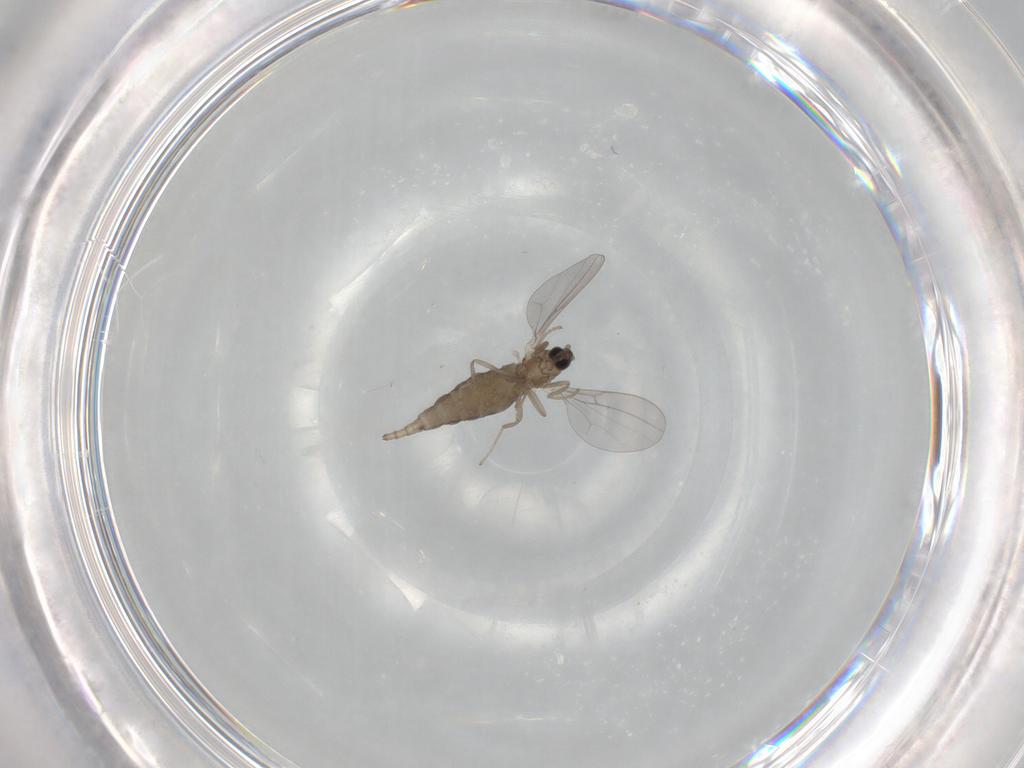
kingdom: Animalia
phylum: Arthropoda
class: Insecta
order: Diptera
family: Cecidomyiidae
